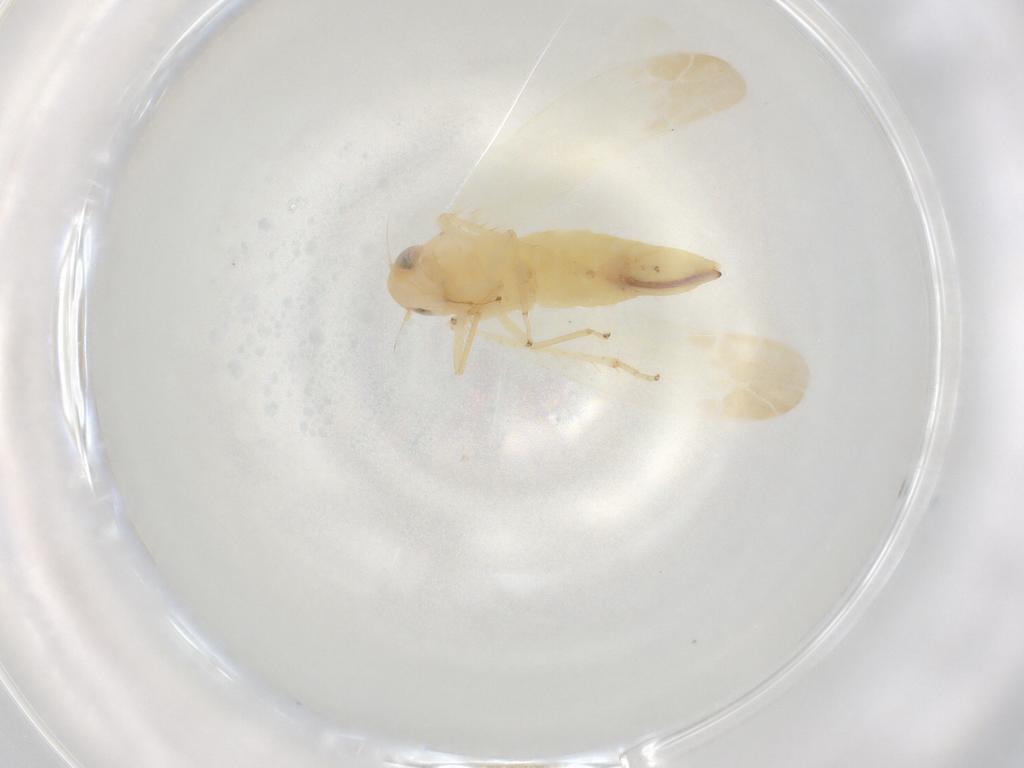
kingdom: Animalia
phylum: Arthropoda
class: Insecta
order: Hemiptera
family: Cicadellidae
